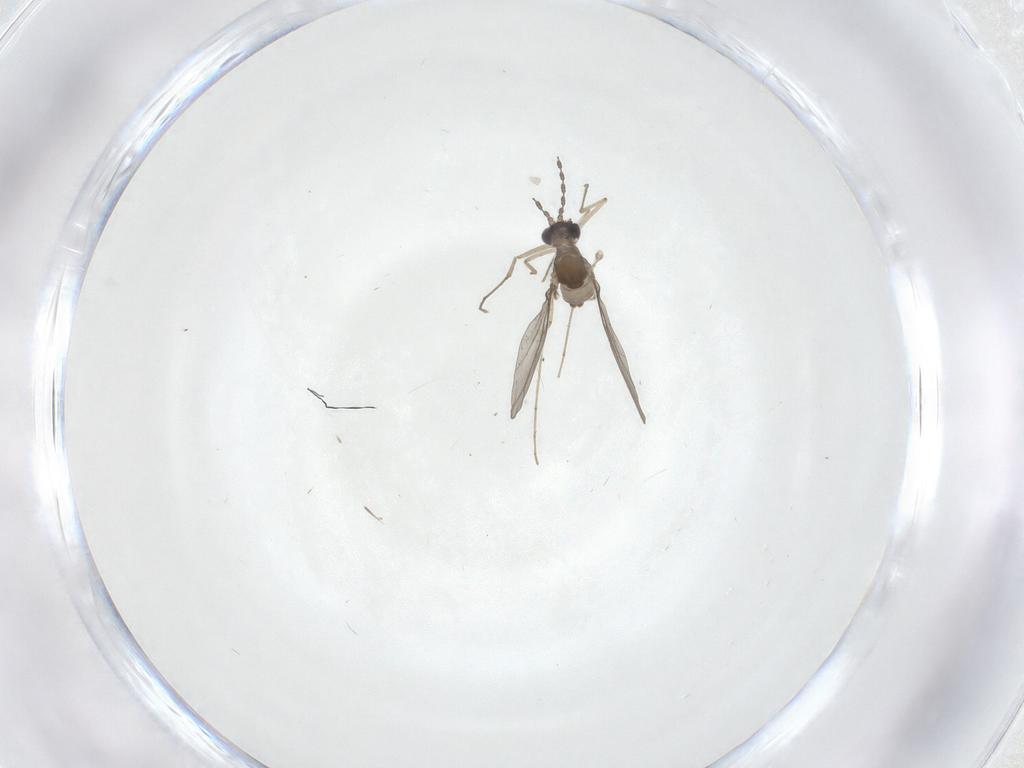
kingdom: Animalia
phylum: Arthropoda
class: Insecta
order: Diptera
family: Cecidomyiidae
